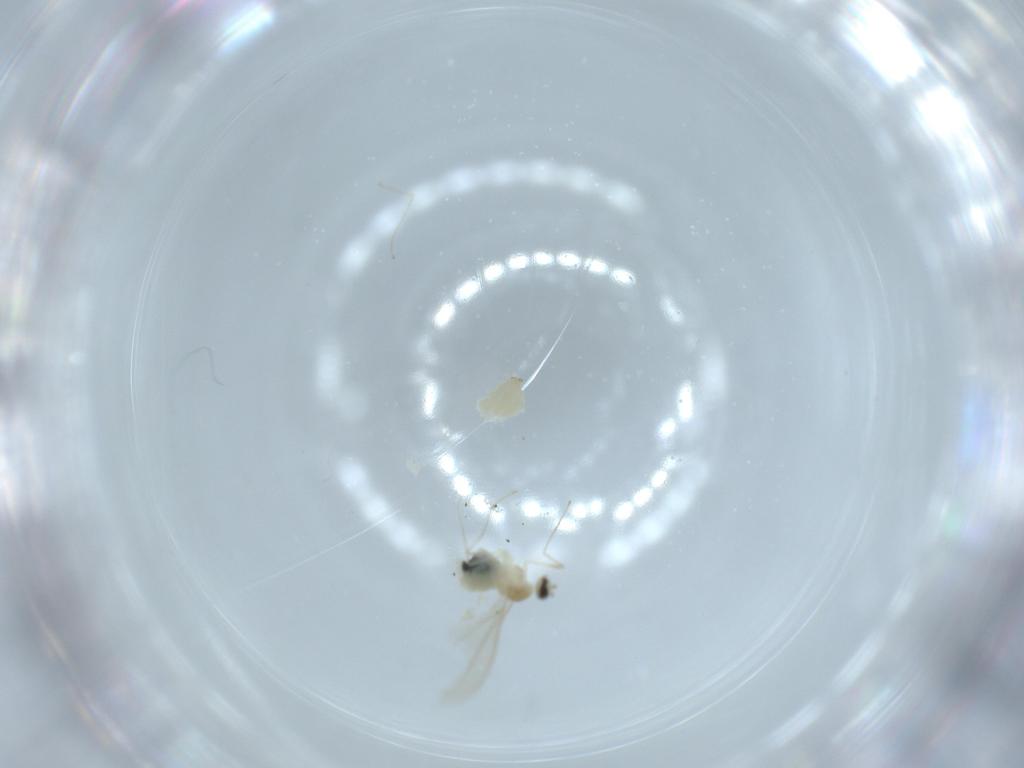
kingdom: Animalia
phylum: Arthropoda
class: Insecta
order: Diptera
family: Cecidomyiidae
